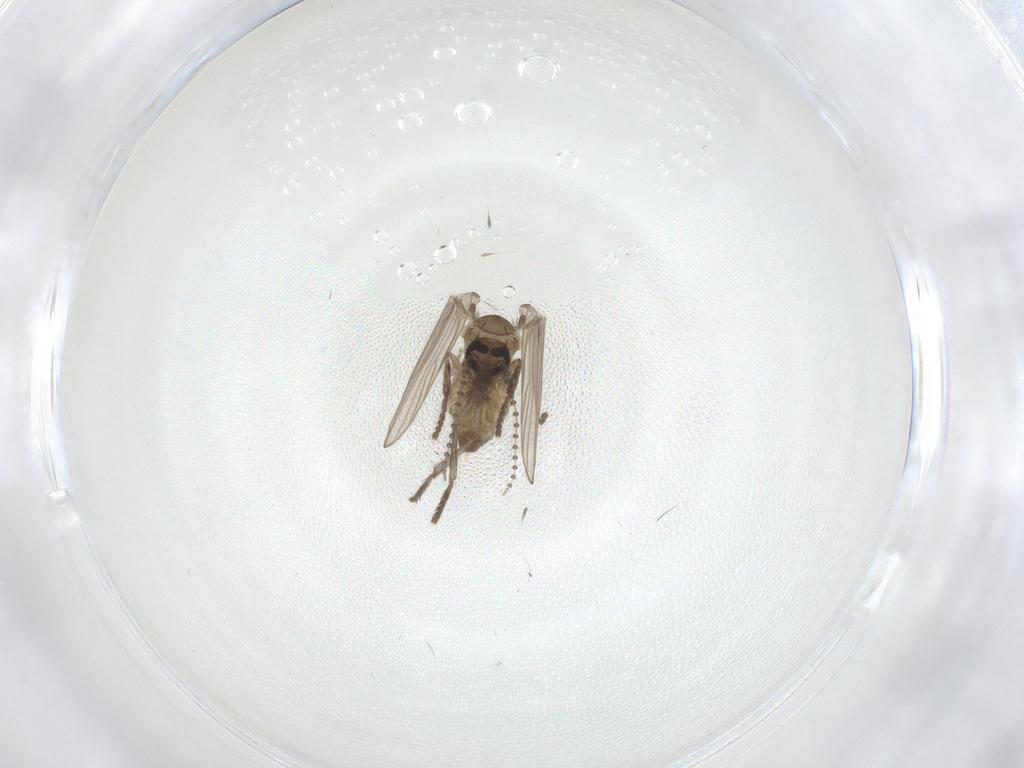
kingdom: Animalia
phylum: Arthropoda
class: Insecta
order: Diptera
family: Psychodidae
